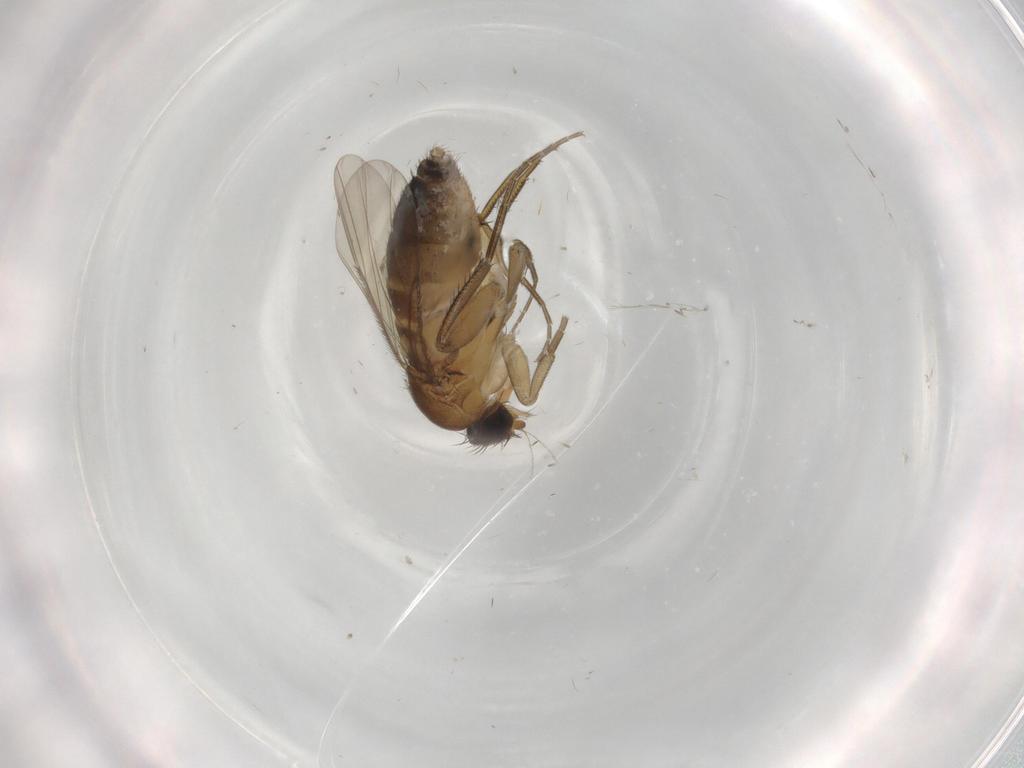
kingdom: Animalia
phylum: Arthropoda
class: Insecta
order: Diptera
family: Phoridae
